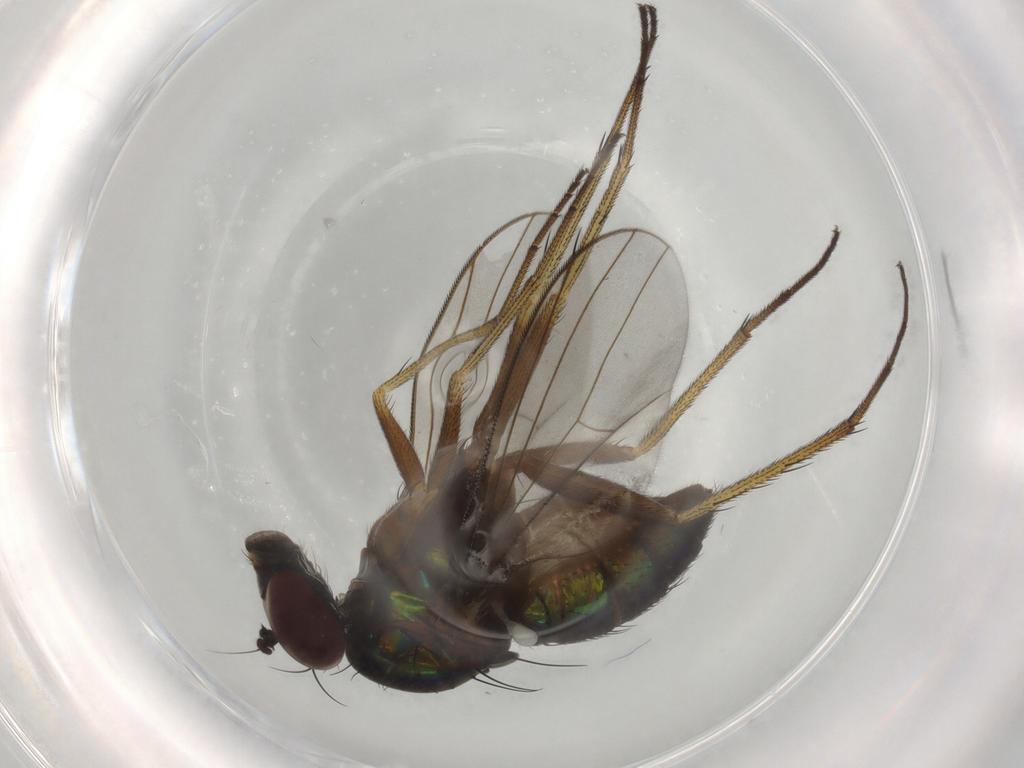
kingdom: Animalia
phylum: Arthropoda
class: Insecta
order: Diptera
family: Dolichopodidae
